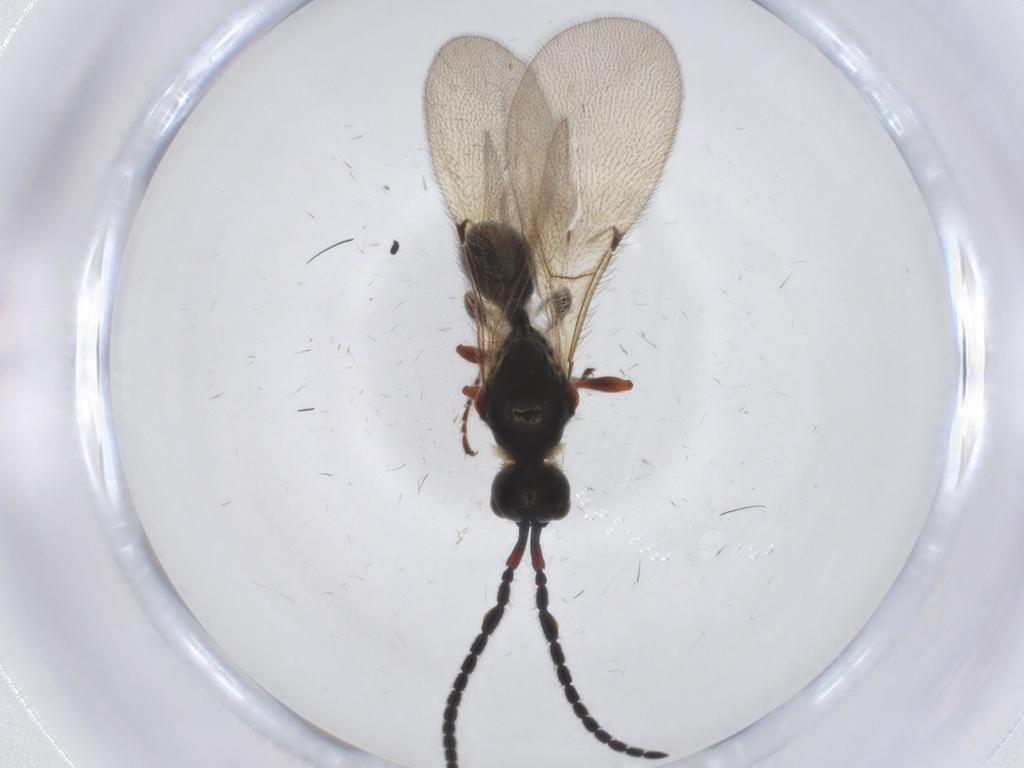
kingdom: Animalia
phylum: Arthropoda
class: Insecta
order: Hymenoptera
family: Diapriidae
